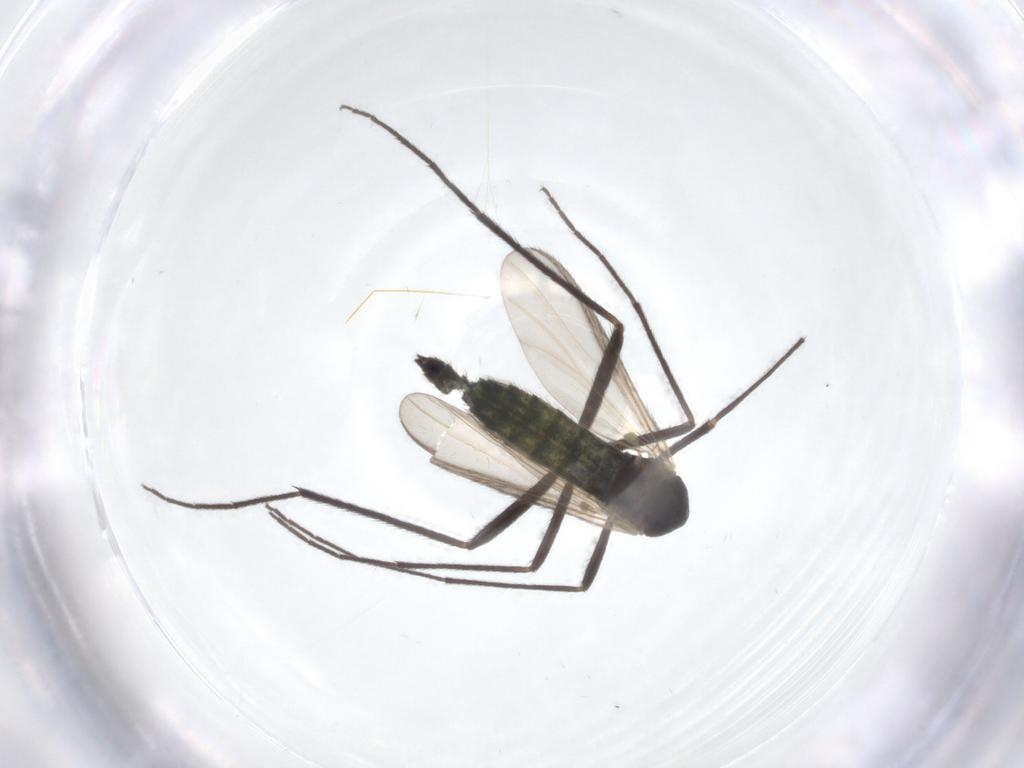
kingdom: Animalia
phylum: Arthropoda
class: Insecta
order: Diptera
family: Chironomidae
